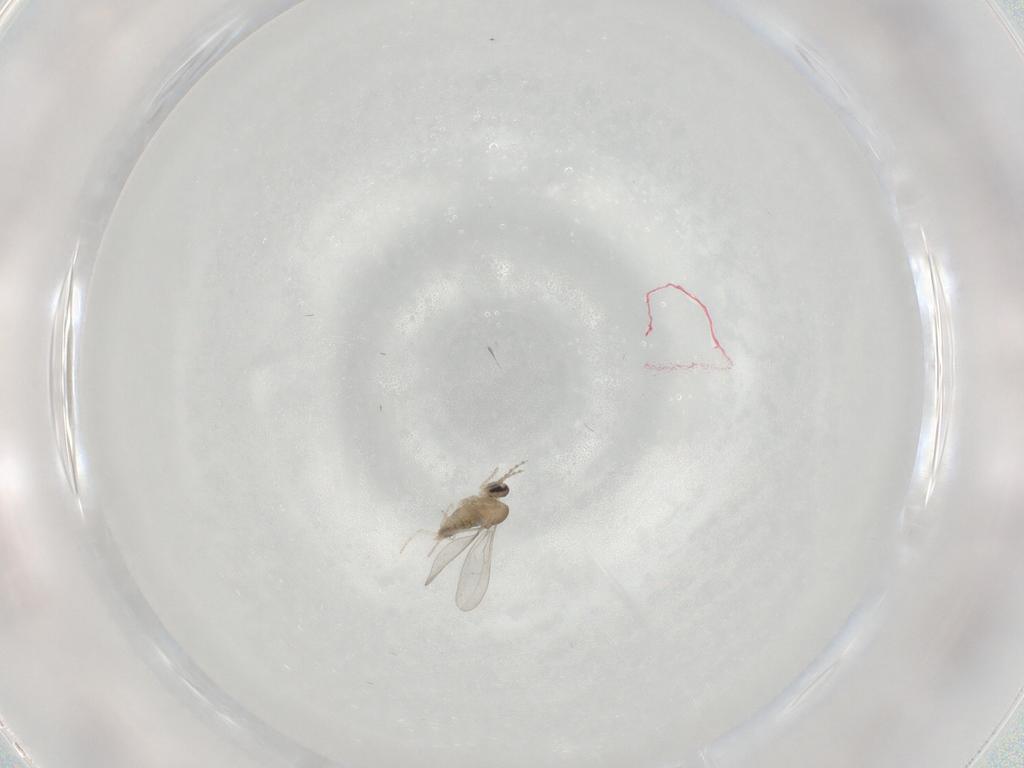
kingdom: Animalia
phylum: Arthropoda
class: Insecta
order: Diptera
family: Cecidomyiidae
